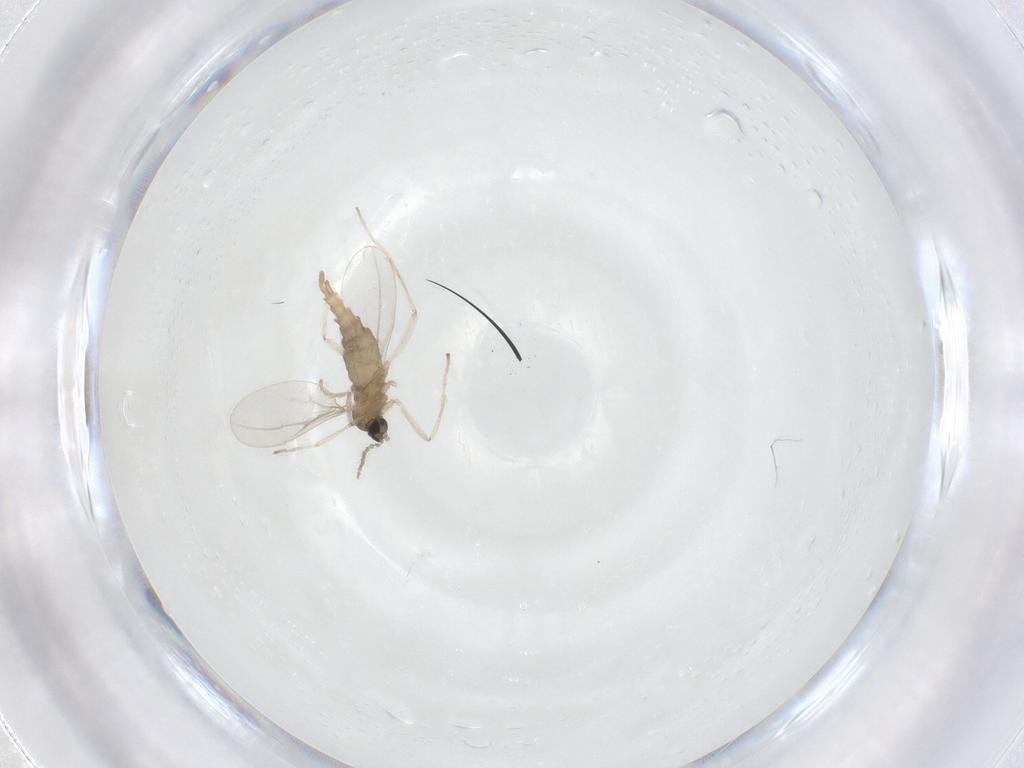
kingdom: Animalia
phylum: Arthropoda
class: Insecta
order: Diptera
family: Cecidomyiidae
